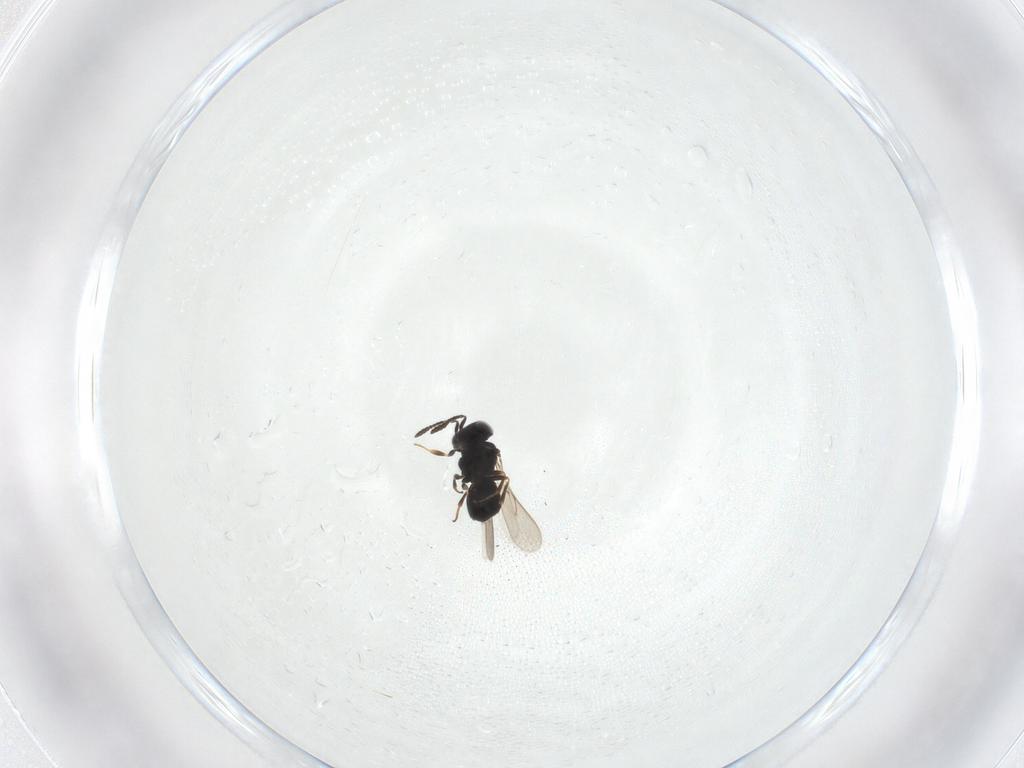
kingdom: Animalia
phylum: Arthropoda
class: Insecta
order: Hymenoptera
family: Scelionidae
